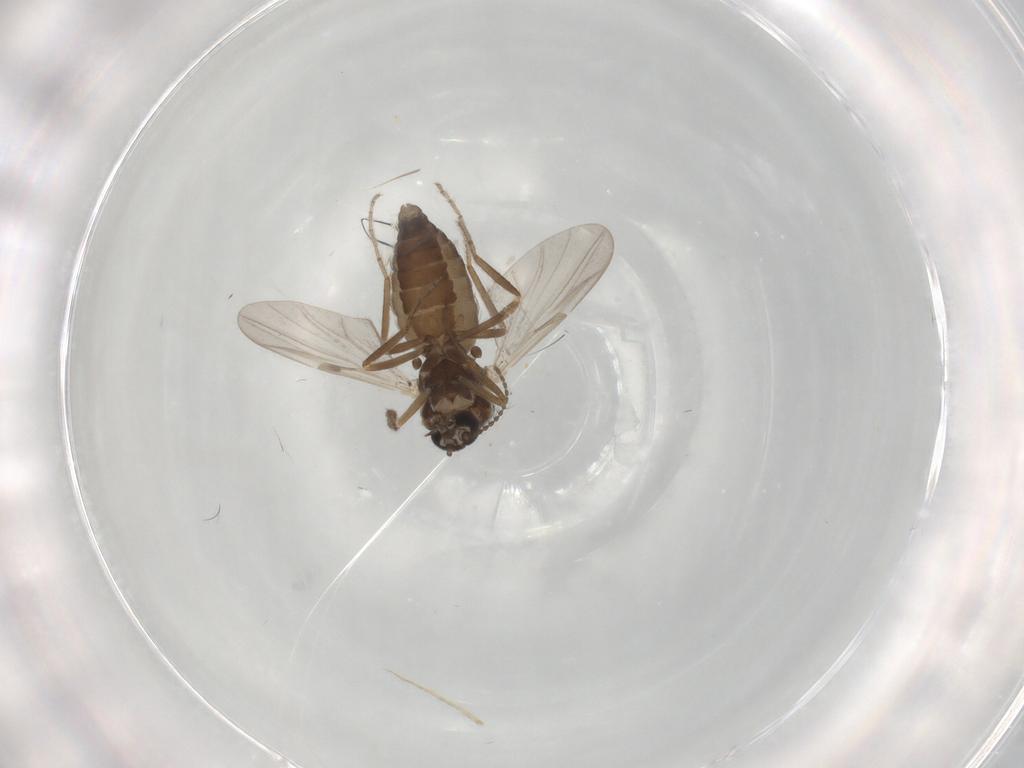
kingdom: Animalia
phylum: Arthropoda
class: Insecta
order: Diptera
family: Ceratopogonidae
